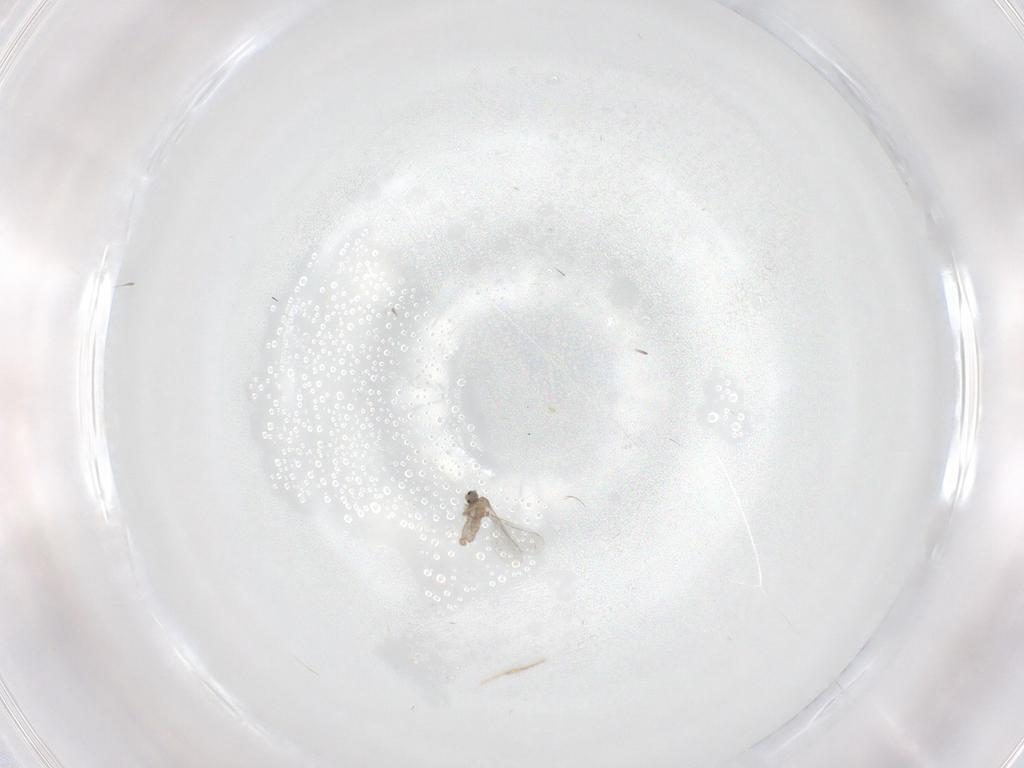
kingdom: Animalia
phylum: Arthropoda
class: Insecta
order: Diptera
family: Cecidomyiidae
